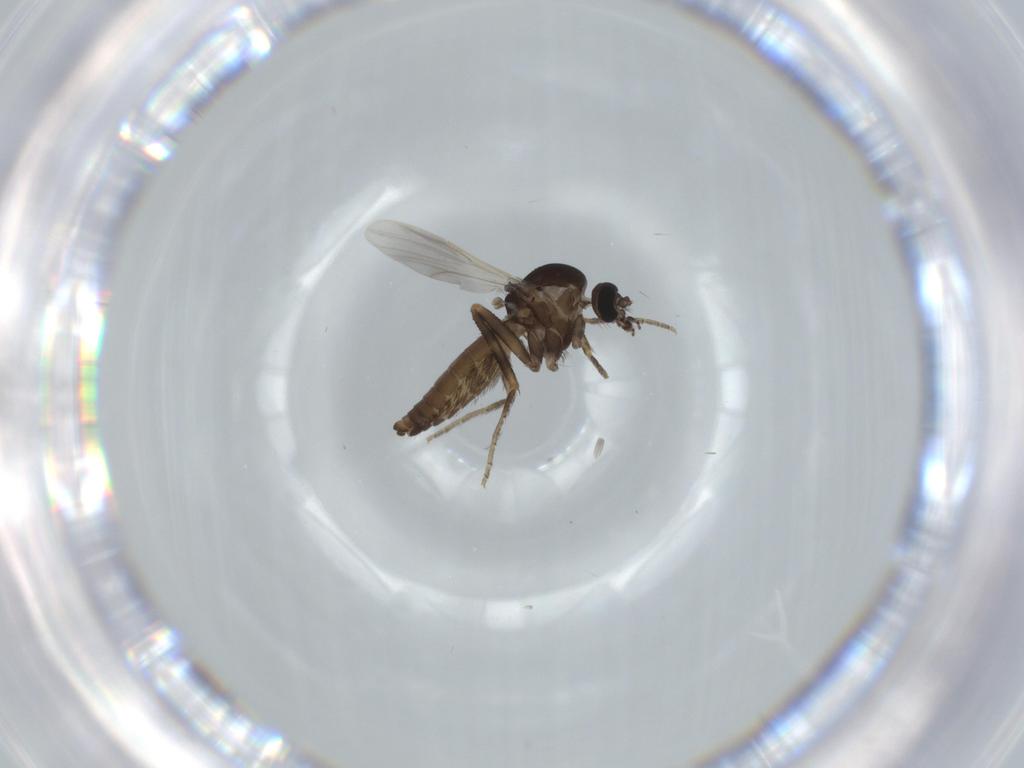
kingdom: Animalia
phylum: Arthropoda
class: Insecta
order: Diptera
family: Ceratopogonidae
